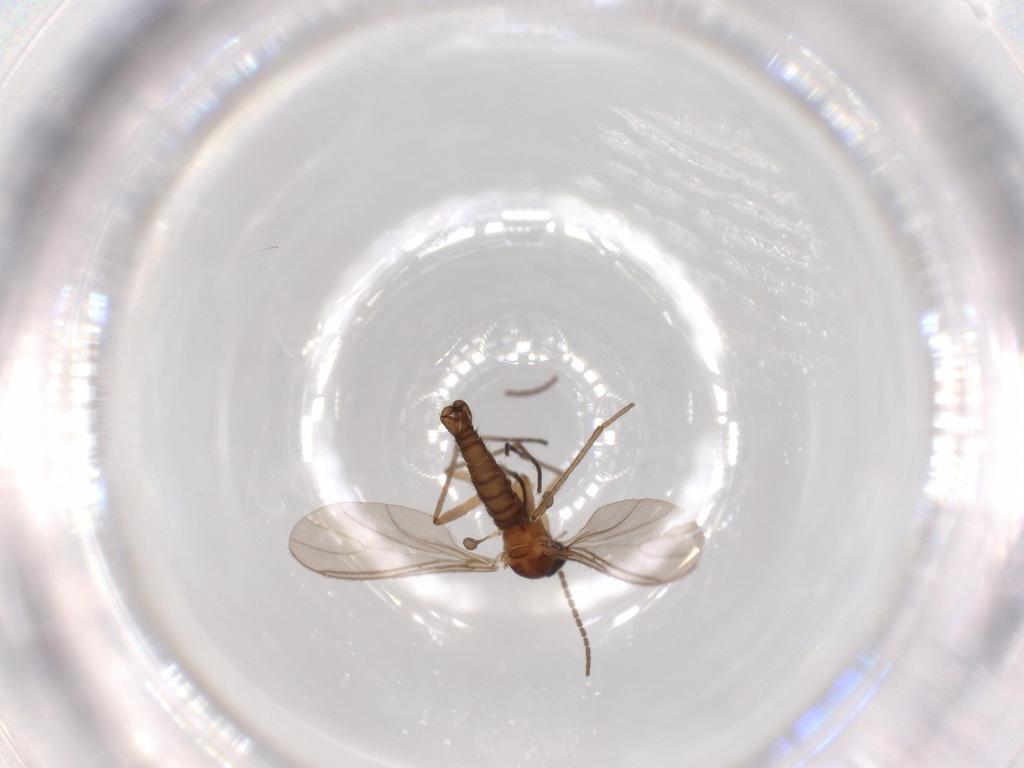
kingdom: Animalia
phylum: Arthropoda
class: Insecta
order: Diptera
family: Sciaridae
